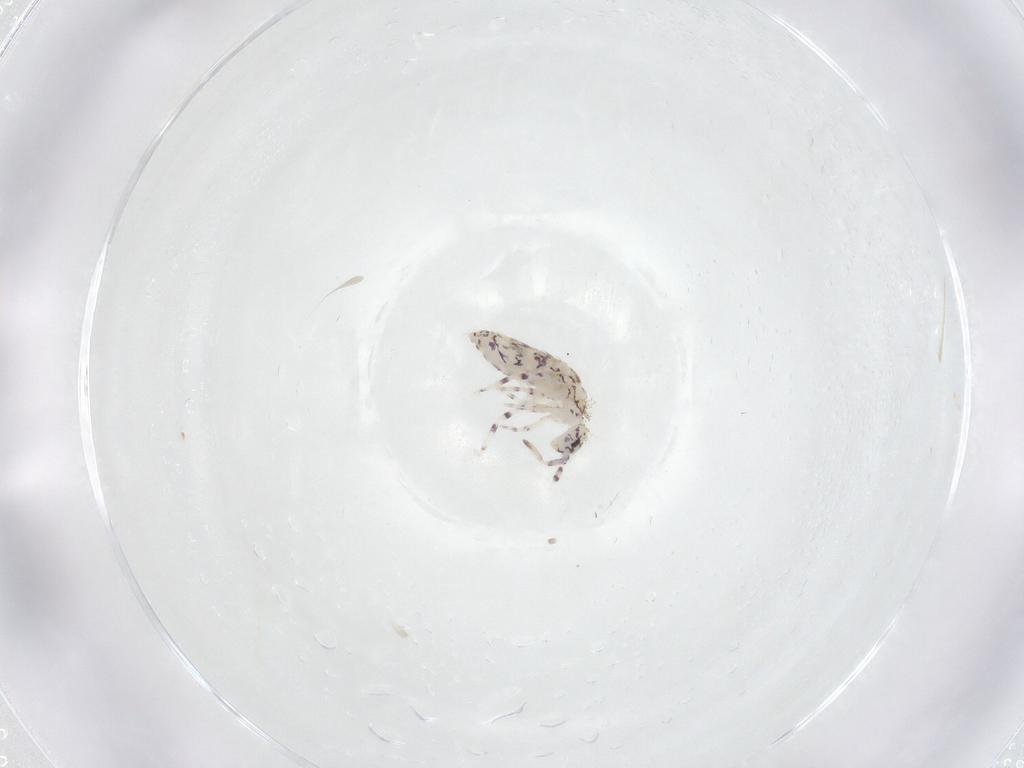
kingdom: Animalia
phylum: Arthropoda
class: Collembola
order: Entomobryomorpha
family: Entomobryidae
